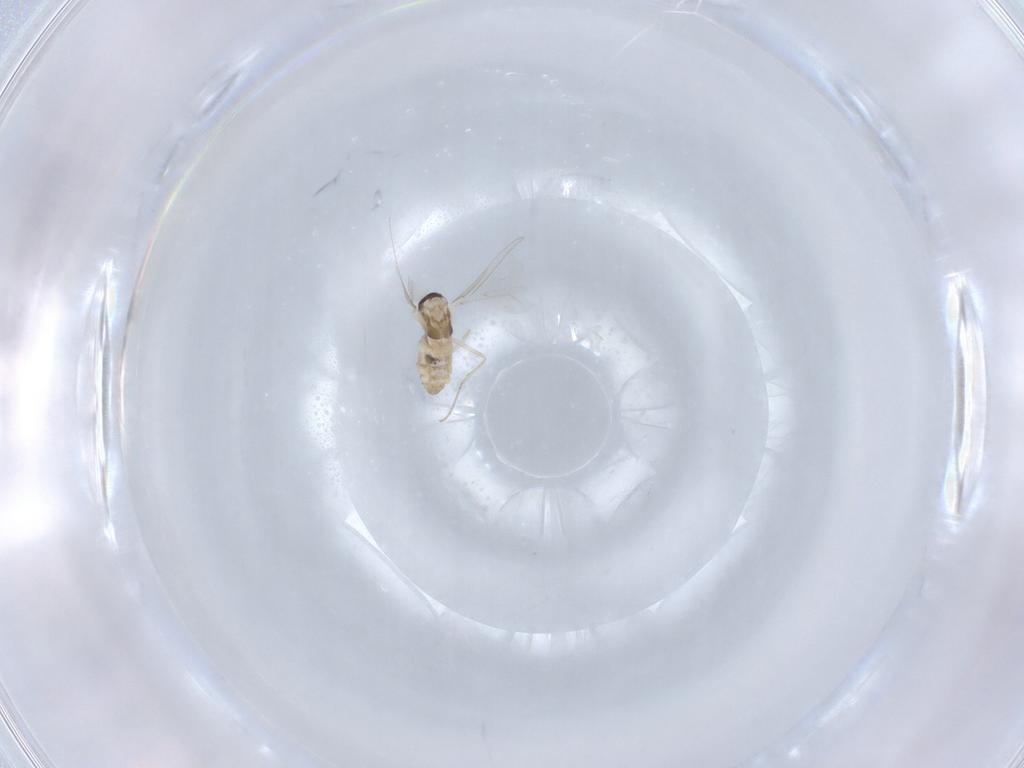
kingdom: Animalia
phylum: Arthropoda
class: Insecta
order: Diptera
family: Cecidomyiidae
